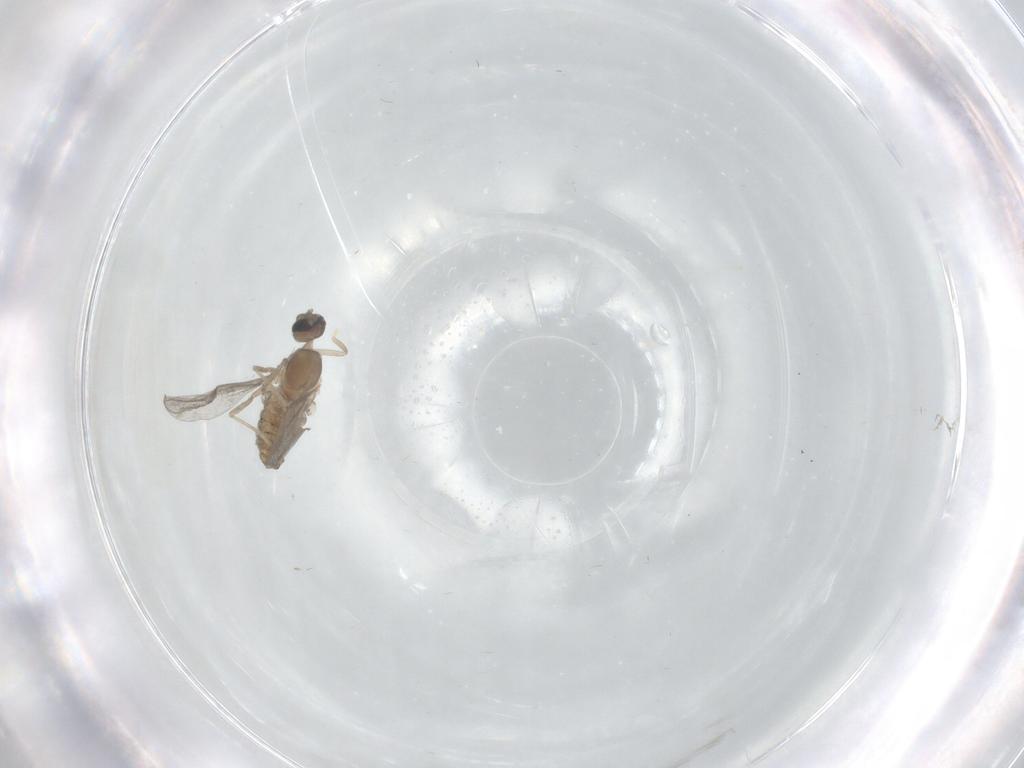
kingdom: Animalia
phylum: Arthropoda
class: Insecta
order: Diptera
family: Cecidomyiidae
